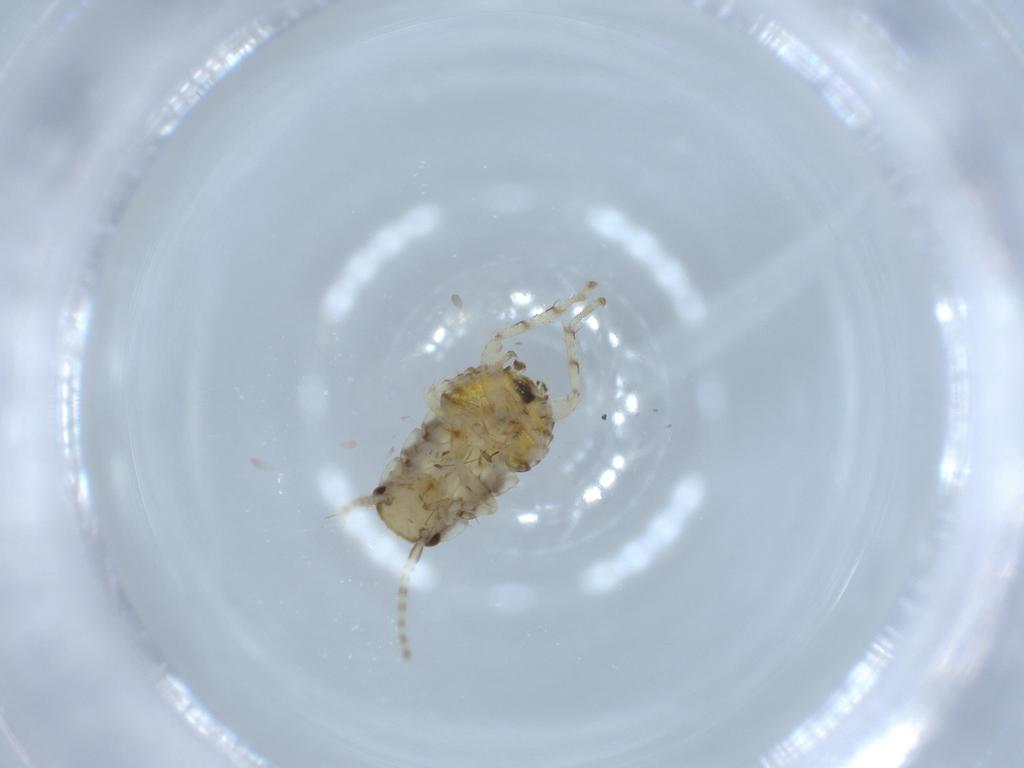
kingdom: Animalia
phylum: Arthropoda
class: Insecta
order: Blattodea
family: Ectobiidae
